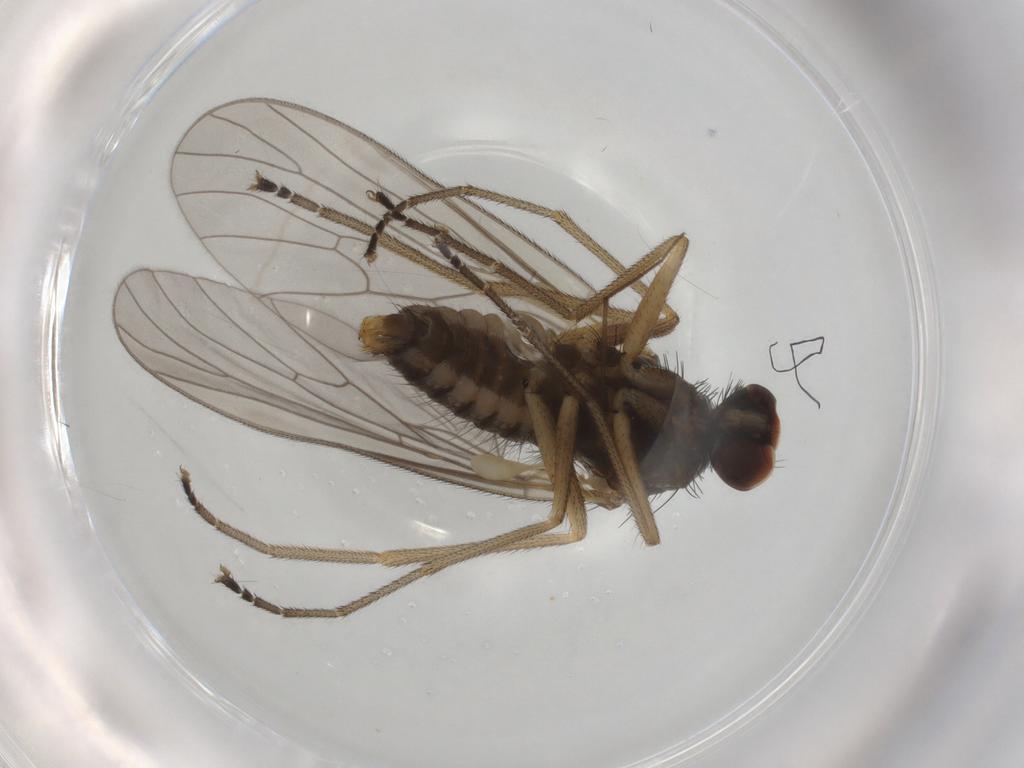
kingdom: Animalia
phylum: Arthropoda
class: Insecta
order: Diptera
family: Brachystomatidae
